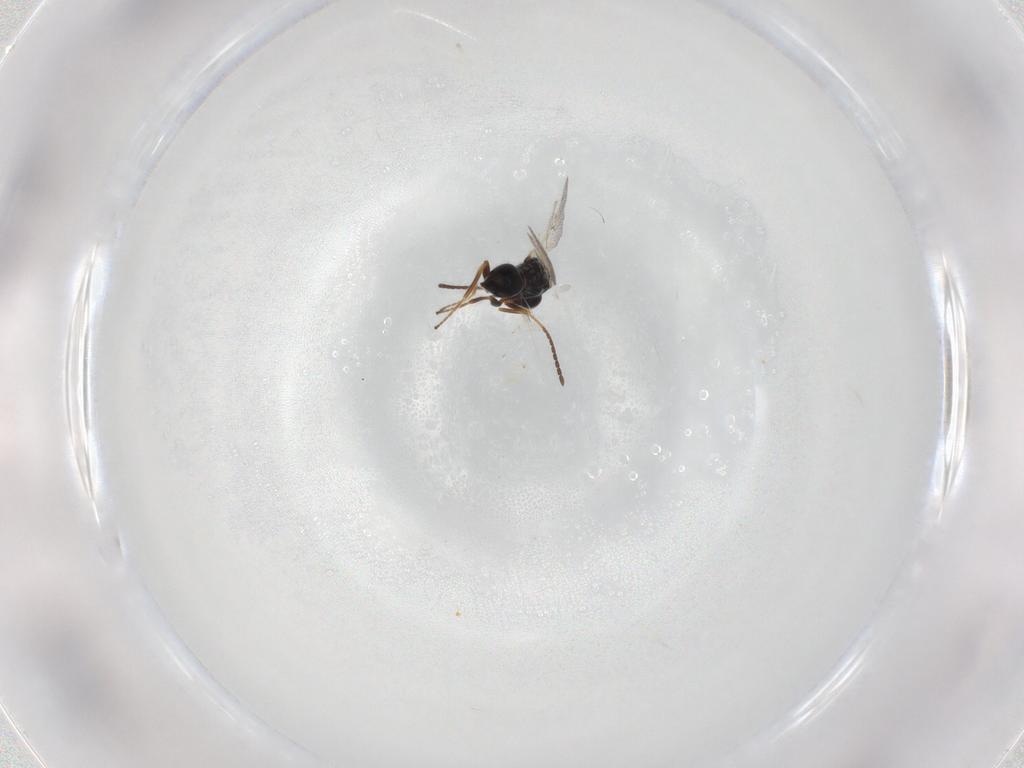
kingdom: Animalia
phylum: Arthropoda
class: Insecta
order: Hymenoptera
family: Figitidae
